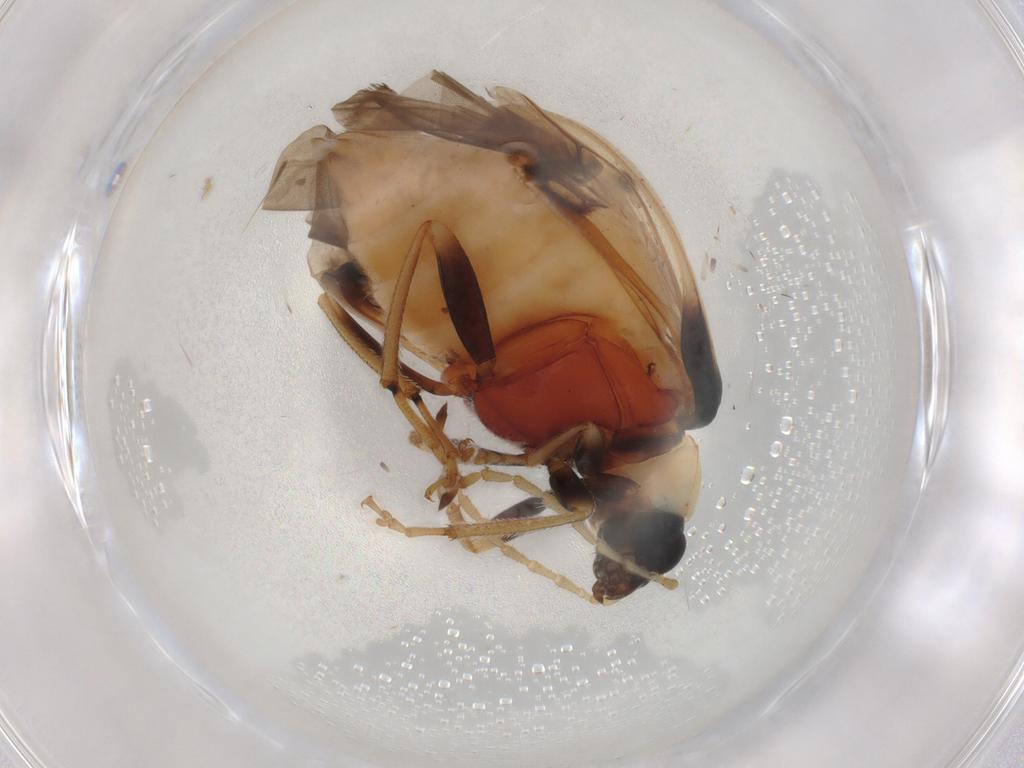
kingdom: Animalia
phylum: Arthropoda
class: Insecta
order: Coleoptera
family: Chrysomelidae
